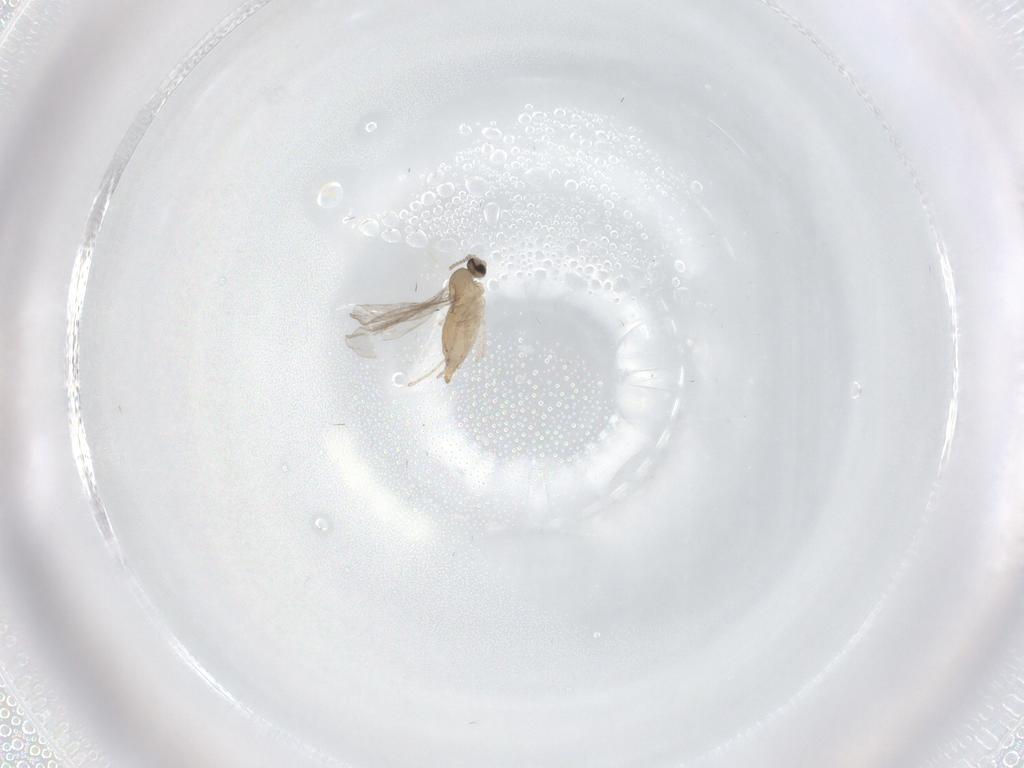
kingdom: Animalia
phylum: Arthropoda
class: Insecta
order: Diptera
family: Cecidomyiidae
